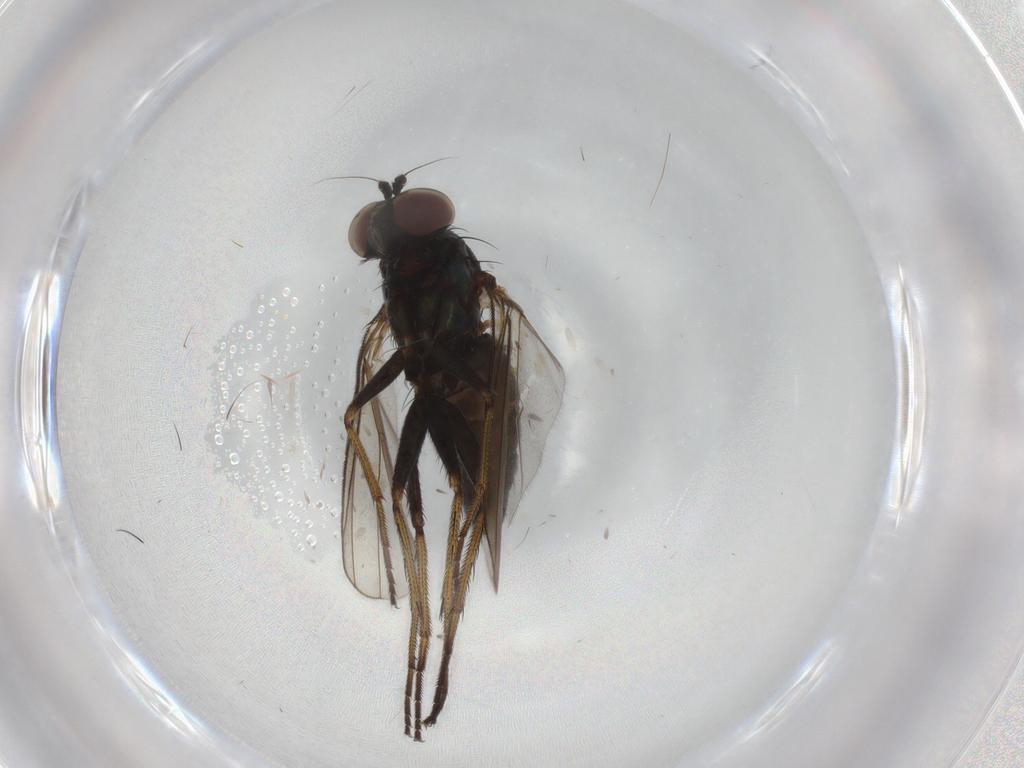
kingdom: Animalia
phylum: Arthropoda
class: Insecta
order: Diptera
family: Dolichopodidae
